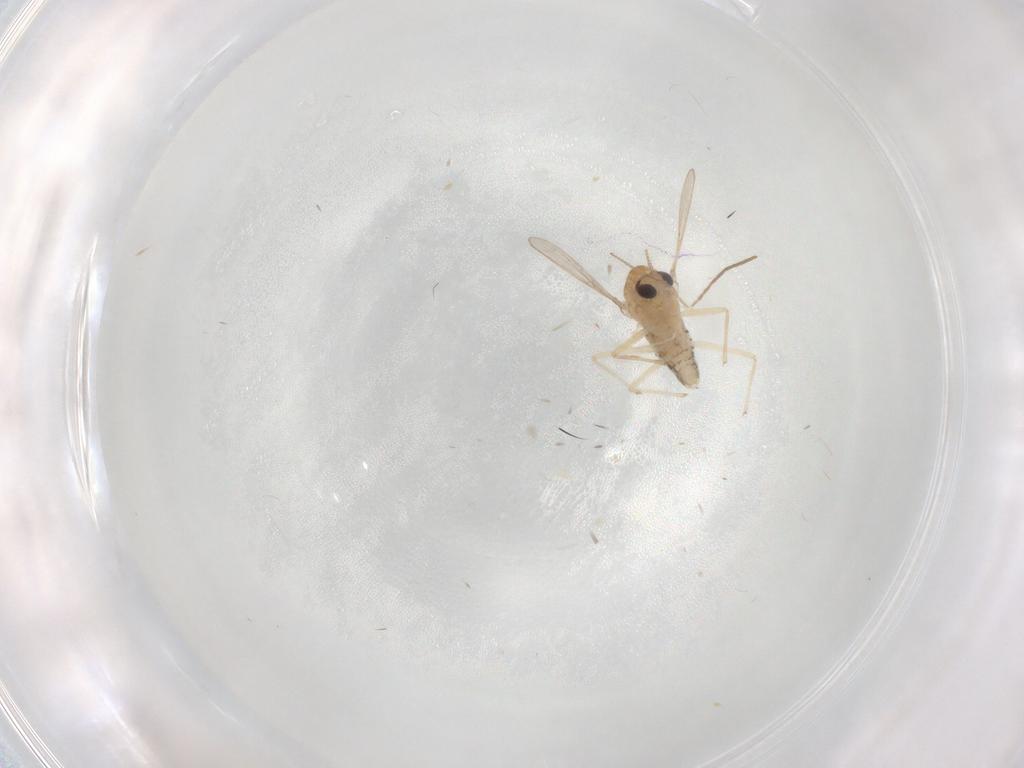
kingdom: Animalia
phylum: Arthropoda
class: Insecta
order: Diptera
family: Chironomidae
